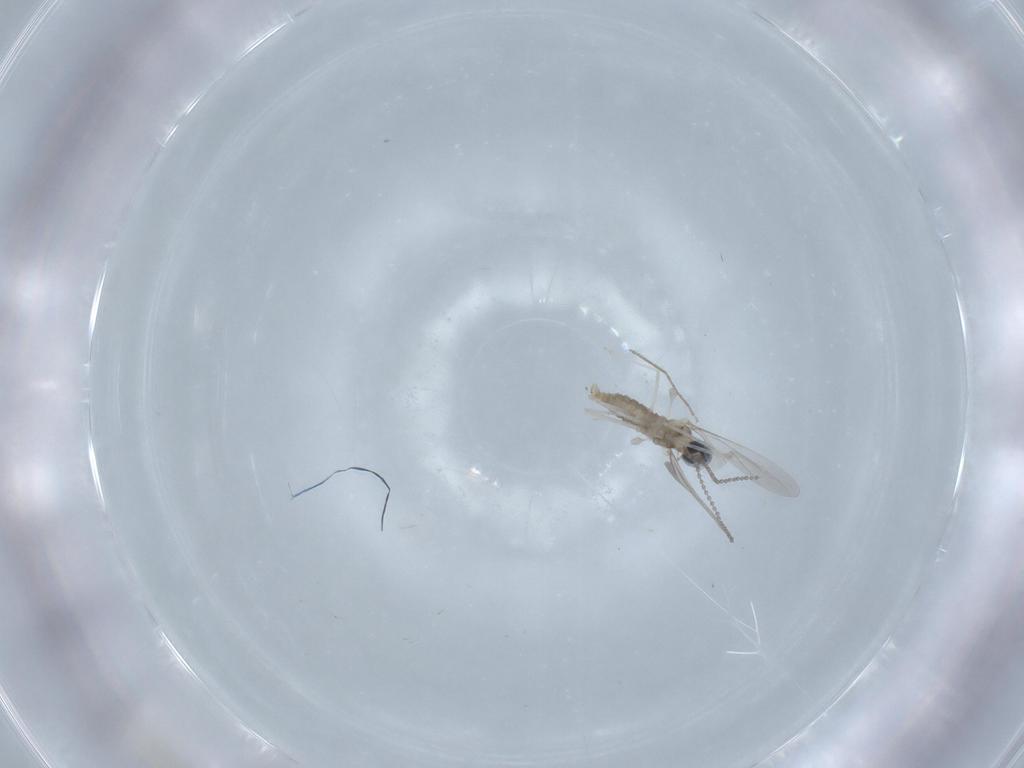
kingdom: Animalia
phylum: Arthropoda
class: Insecta
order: Diptera
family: Cecidomyiidae
